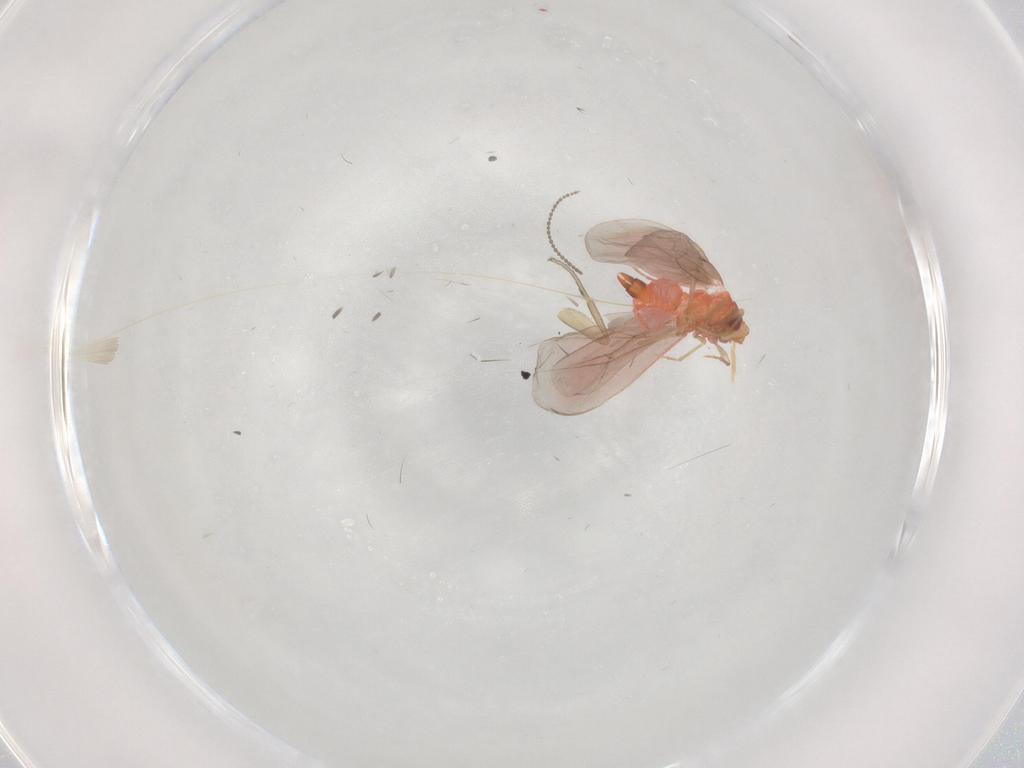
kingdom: Animalia
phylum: Arthropoda
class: Insecta
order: Hemiptera
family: Aleyrodidae
